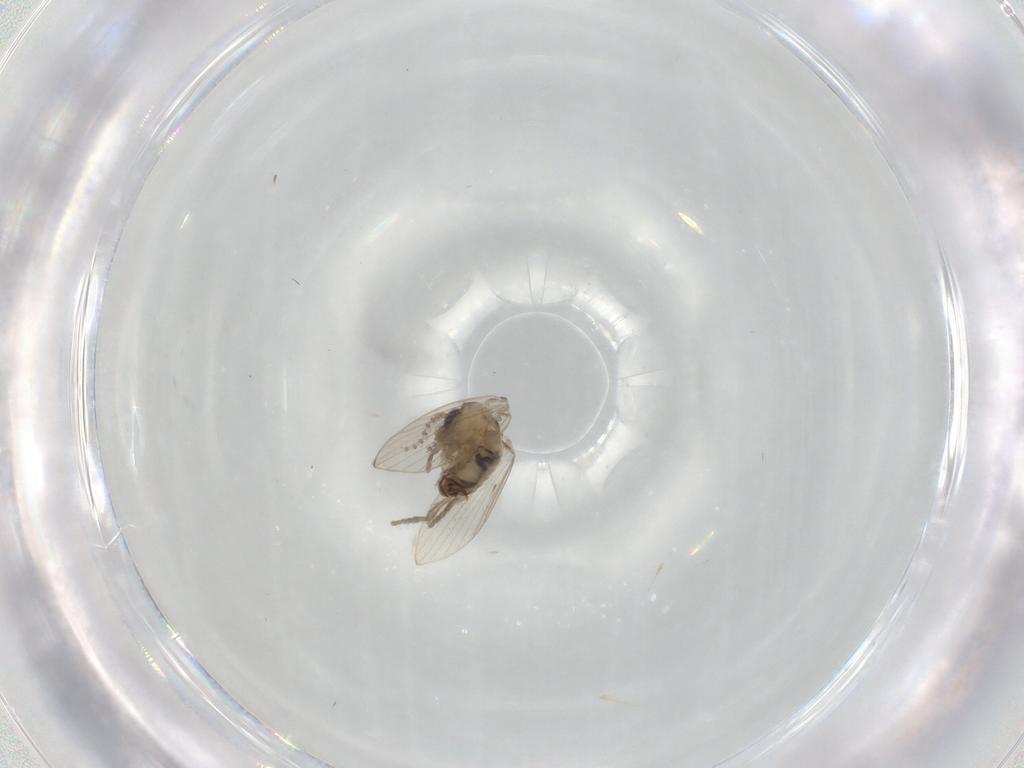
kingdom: Animalia
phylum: Arthropoda
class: Insecta
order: Diptera
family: Psychodidae
